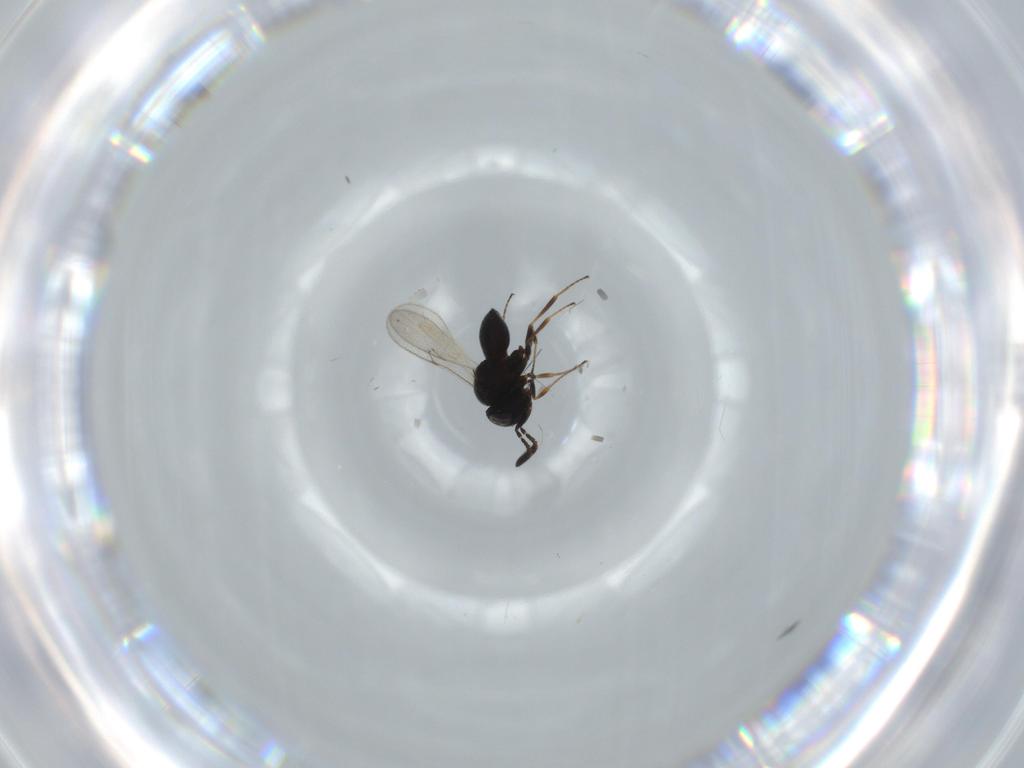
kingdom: Animalia
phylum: Arthropoda
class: Insecta
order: Hymenoptera
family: Scelionidae
